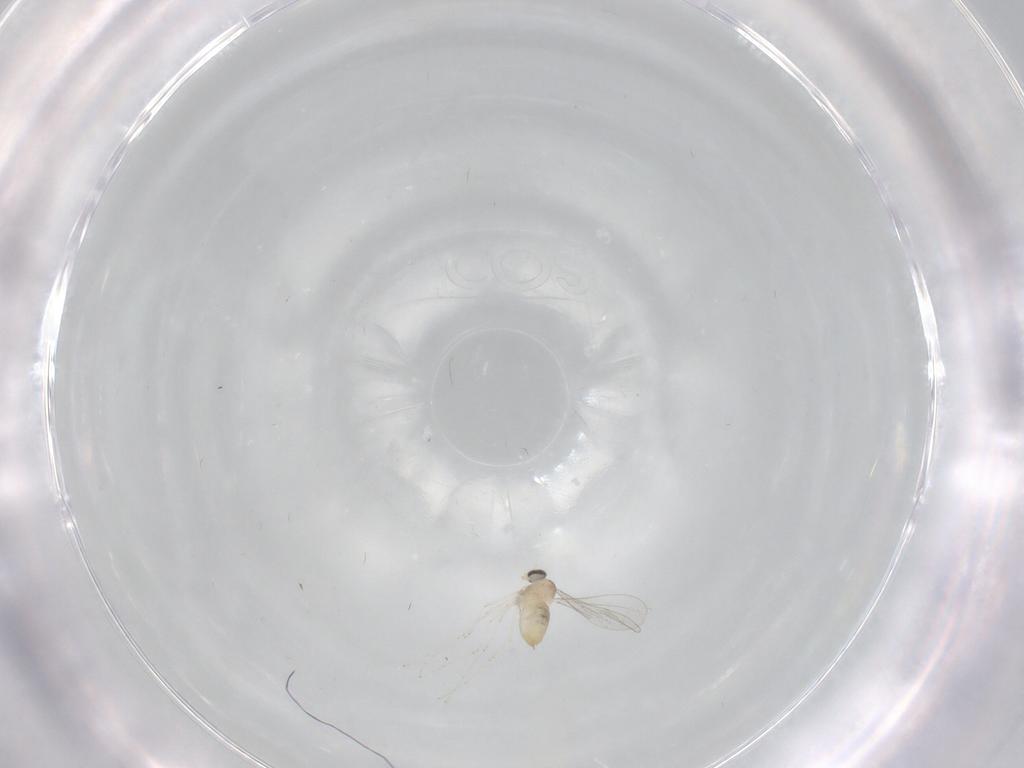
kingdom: Animalia
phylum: Arthropoda
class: Insecta
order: Diptera
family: Cecidomyiidae
